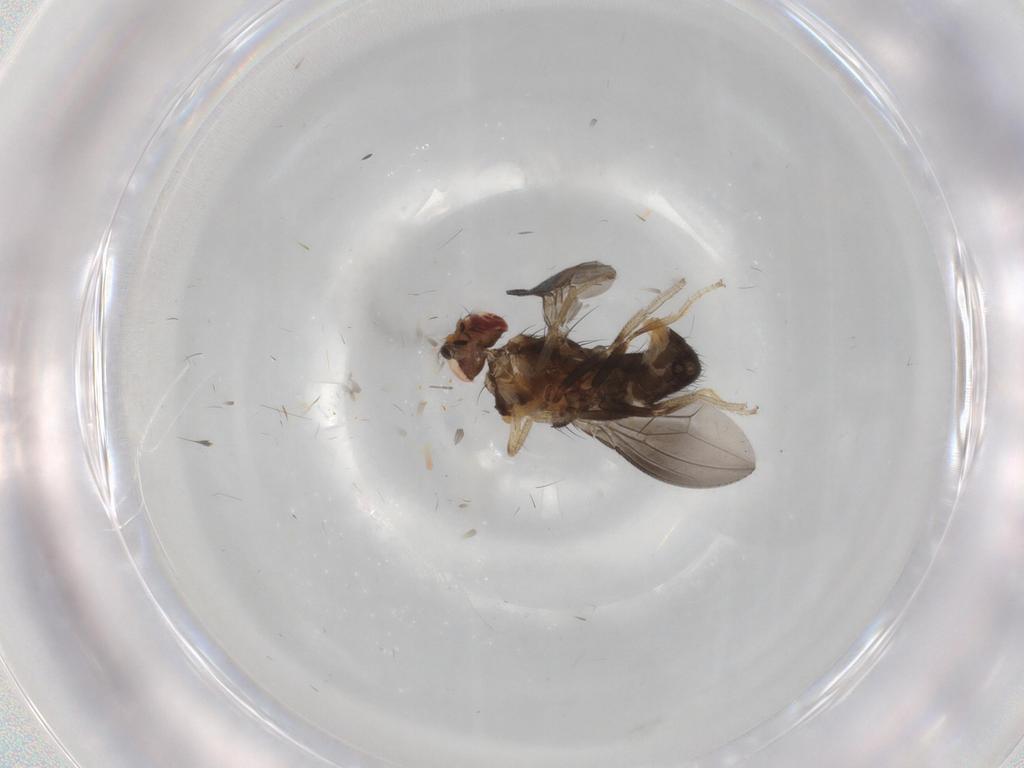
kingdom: Animalia
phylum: Arthropoda
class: Insecta
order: Diptera
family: Drosophilidae
